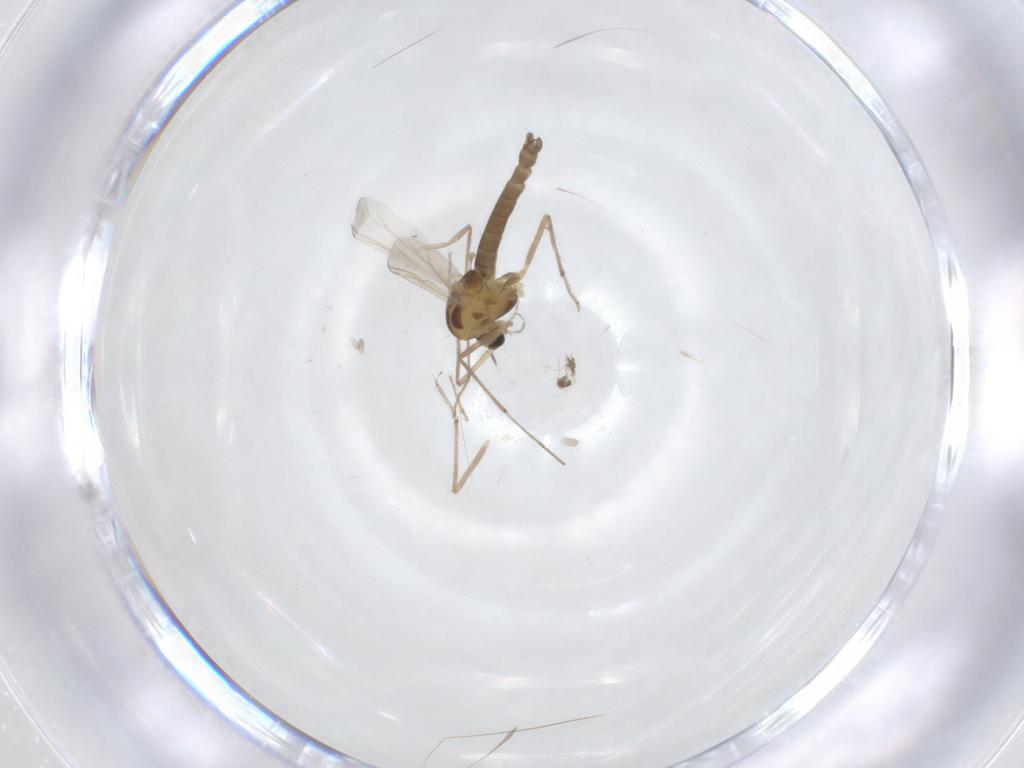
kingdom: Animalia
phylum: Arthropoda
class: Insecta
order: Diptera
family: Chironomidae
